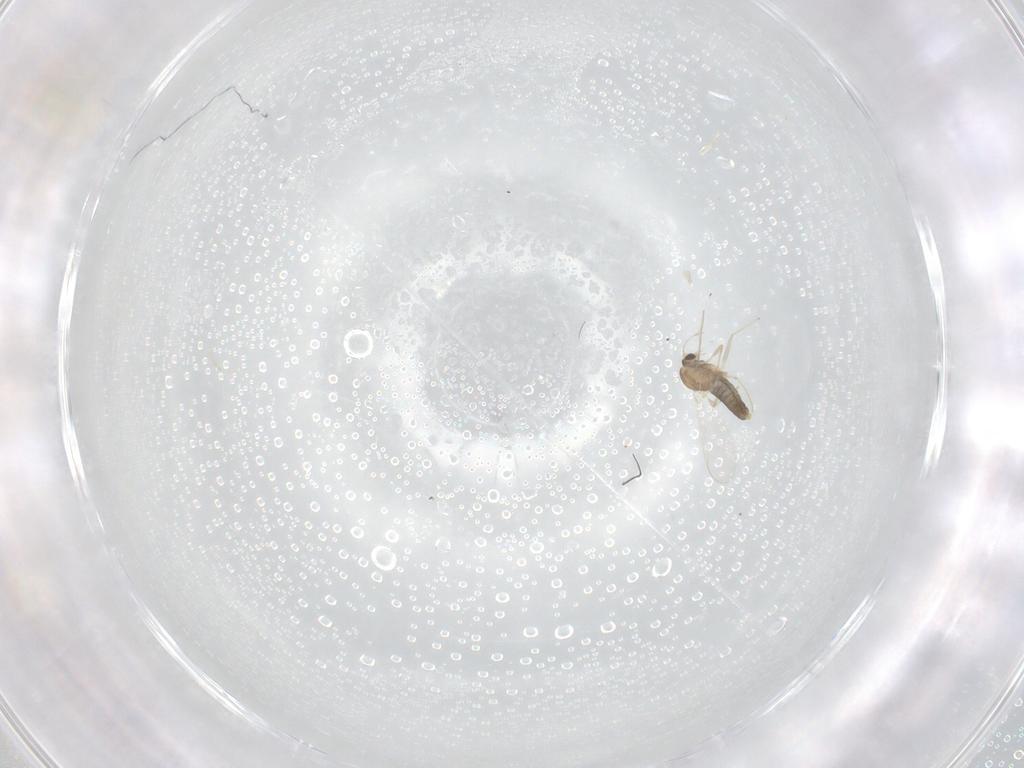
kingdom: Animalia
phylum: Arthropoda
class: Insecta
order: Diptera
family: Chironomidae
